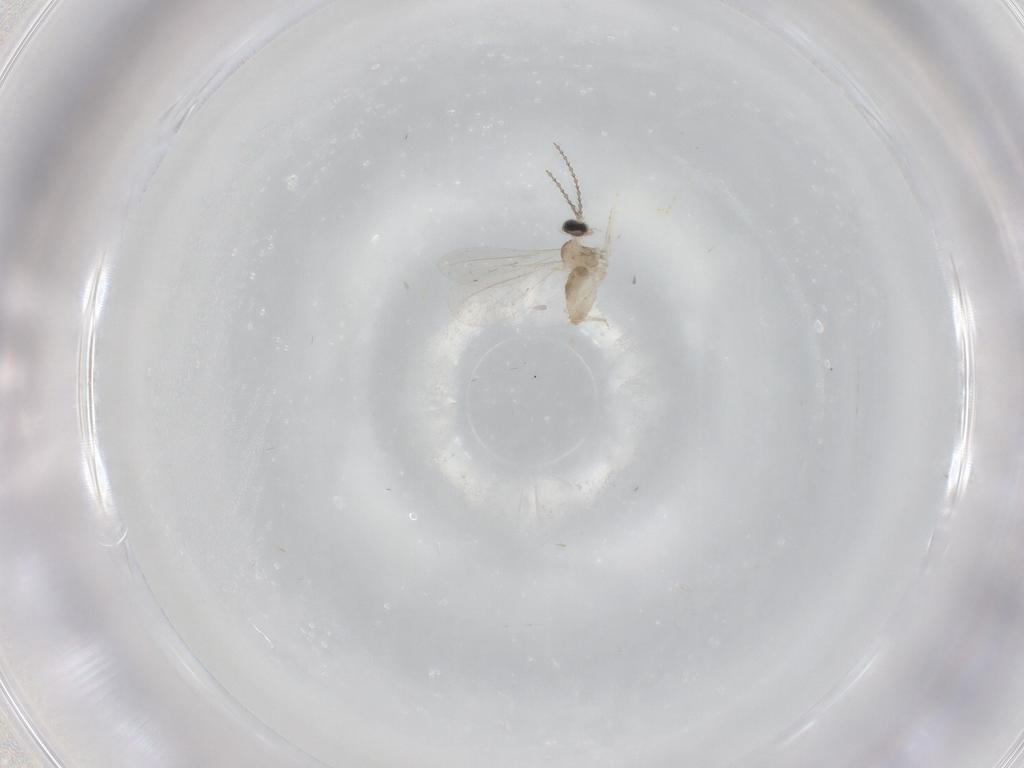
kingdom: Animalia
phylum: Arthropoda
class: Insecta
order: Diptera
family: Cecidomyiidae
